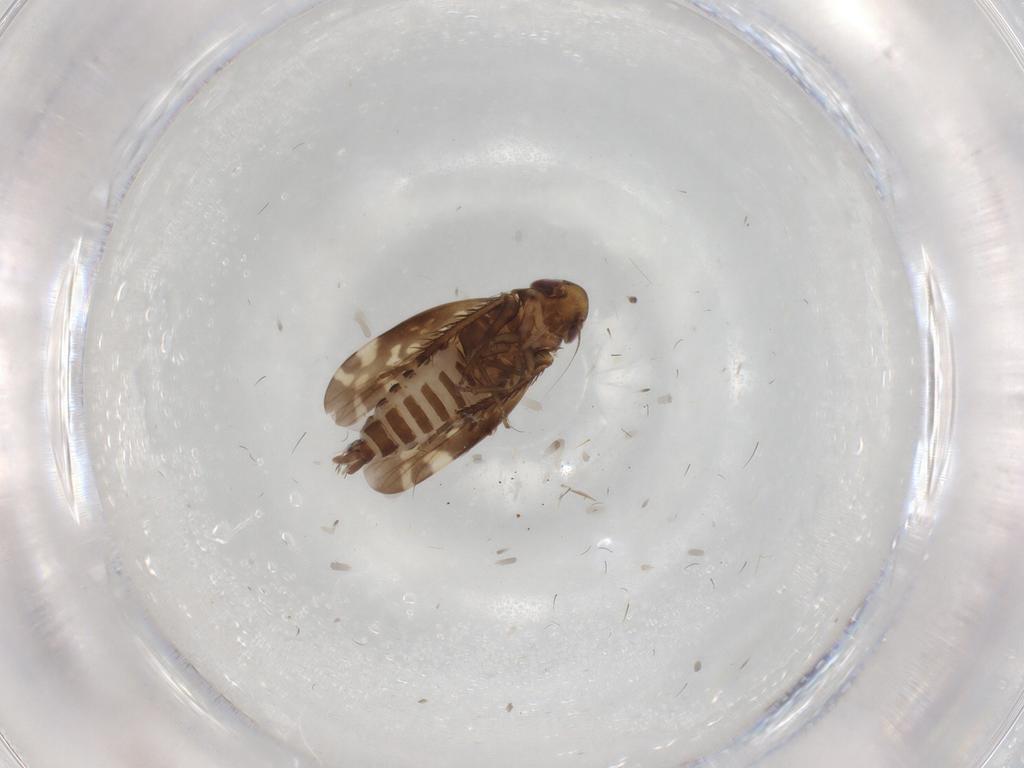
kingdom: Animalia
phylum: Arthropoda
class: Insecta
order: Hemiptera
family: Cicadellidae
